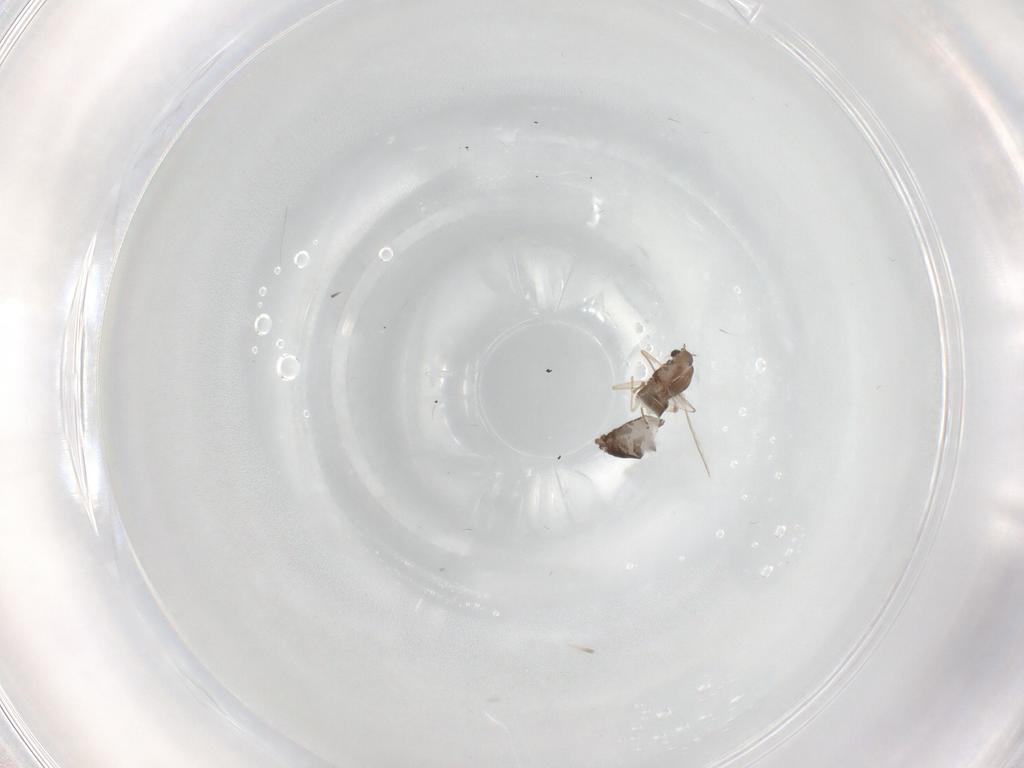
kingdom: Animalia
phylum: Arthropoda
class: Insecta
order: Diptera
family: Chironomidae
